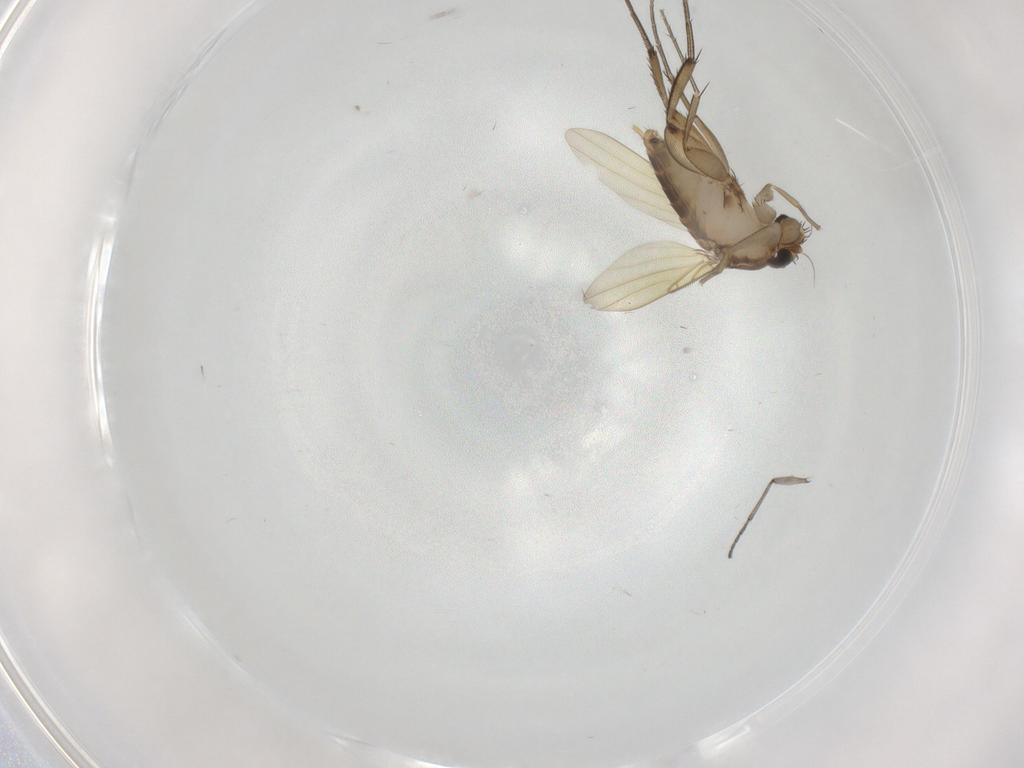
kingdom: Animalia
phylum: Arthropoda
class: Insecta
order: Diptera
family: Phoridae
